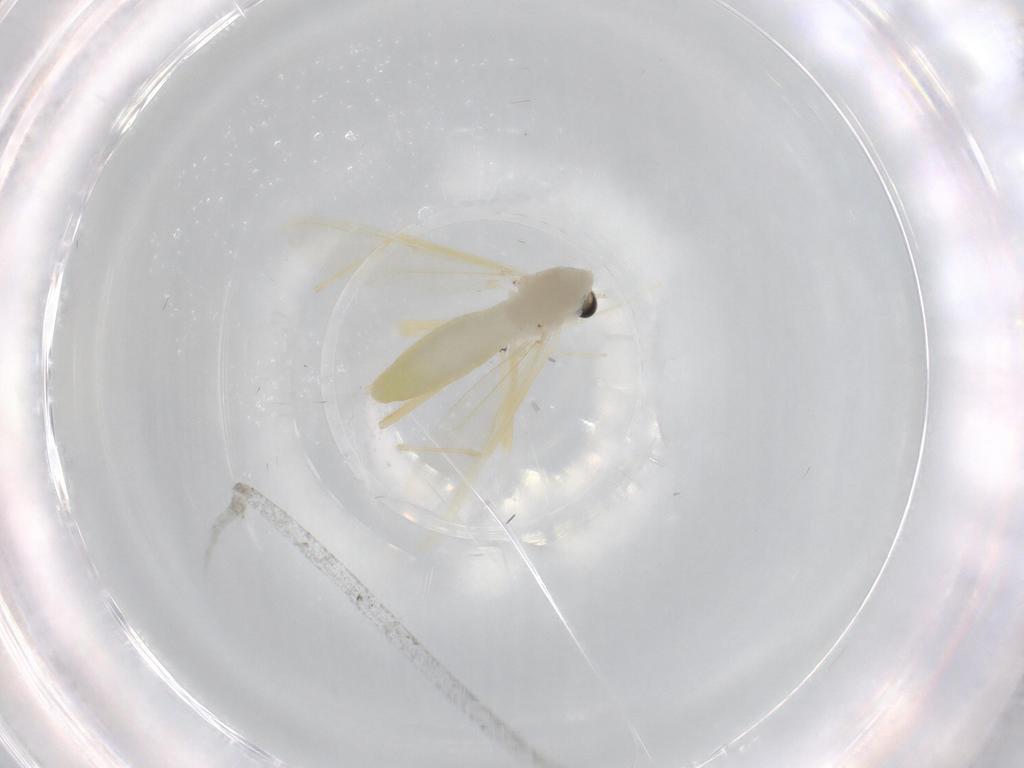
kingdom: Animalia
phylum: Arthropoda
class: Insecta
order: Diptera
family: Chironomidae
